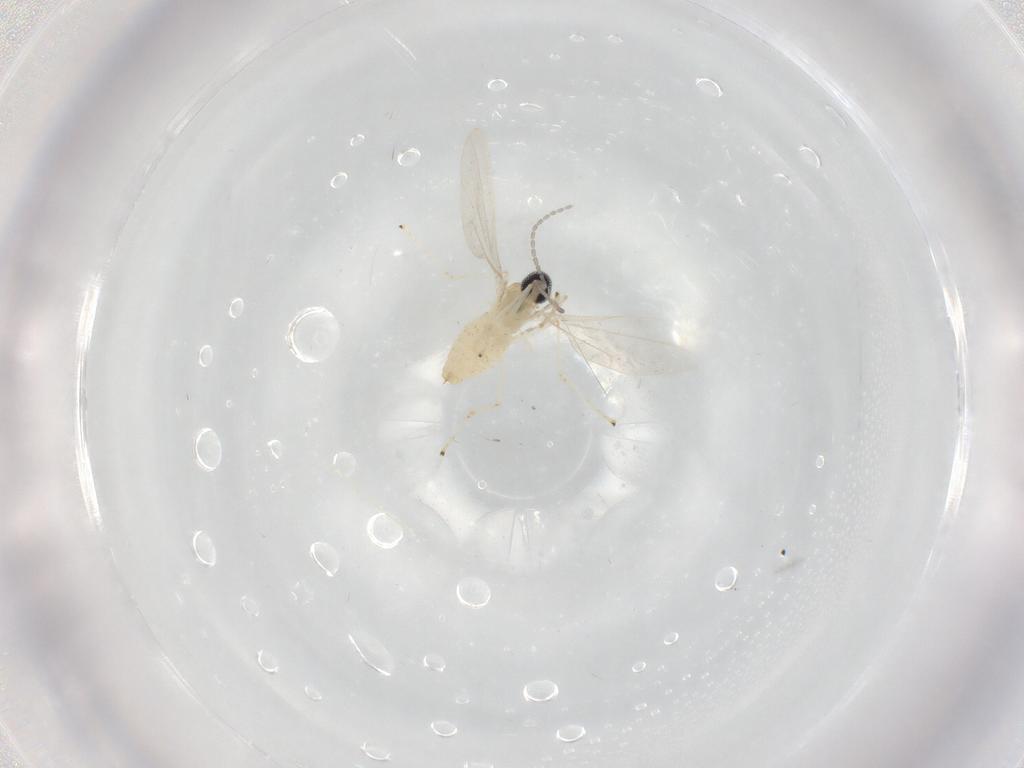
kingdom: Animalia
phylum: Arthropoda
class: Insecta
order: Diptera
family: Cecidomyiidae
